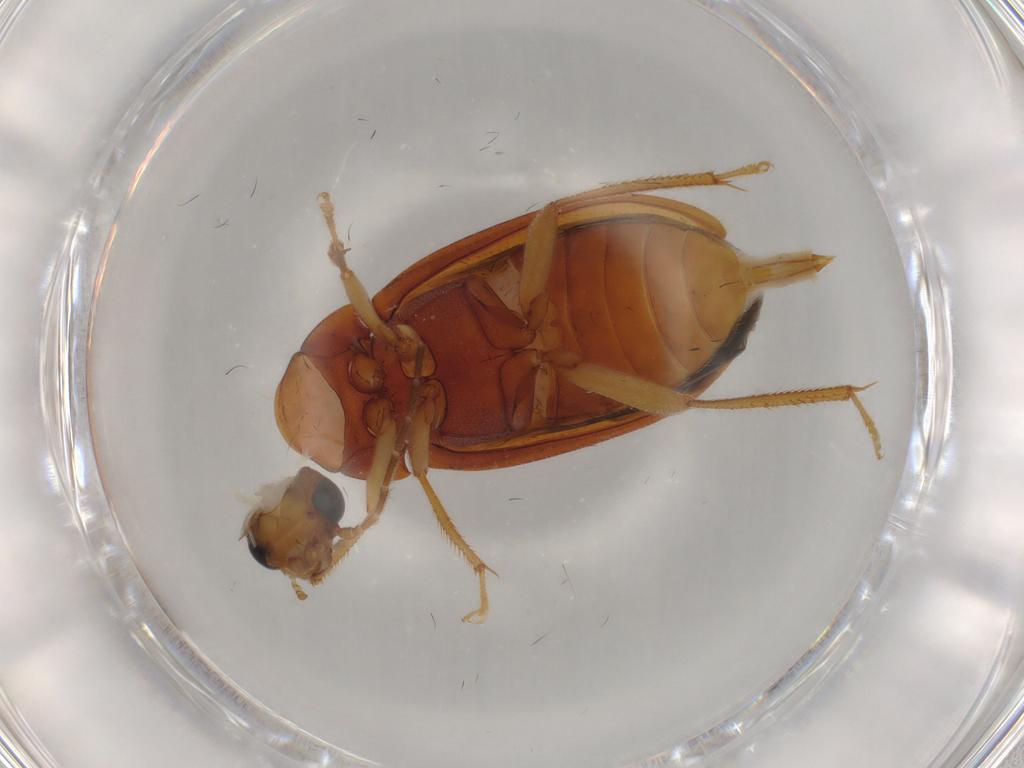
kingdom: Animalia
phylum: Arthropoda
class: Insecta
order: Coleoptera
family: Ptilodactylidae
